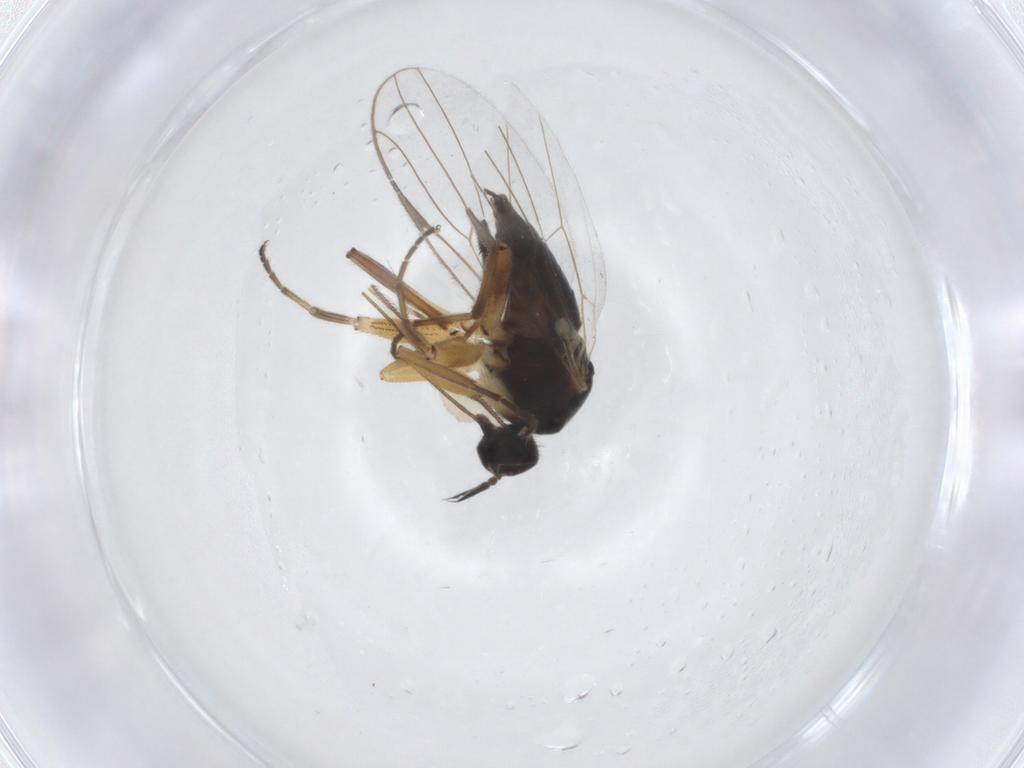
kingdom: Animalia
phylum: Arthropoda
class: Insecta
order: Diptera
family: Hybotidae
